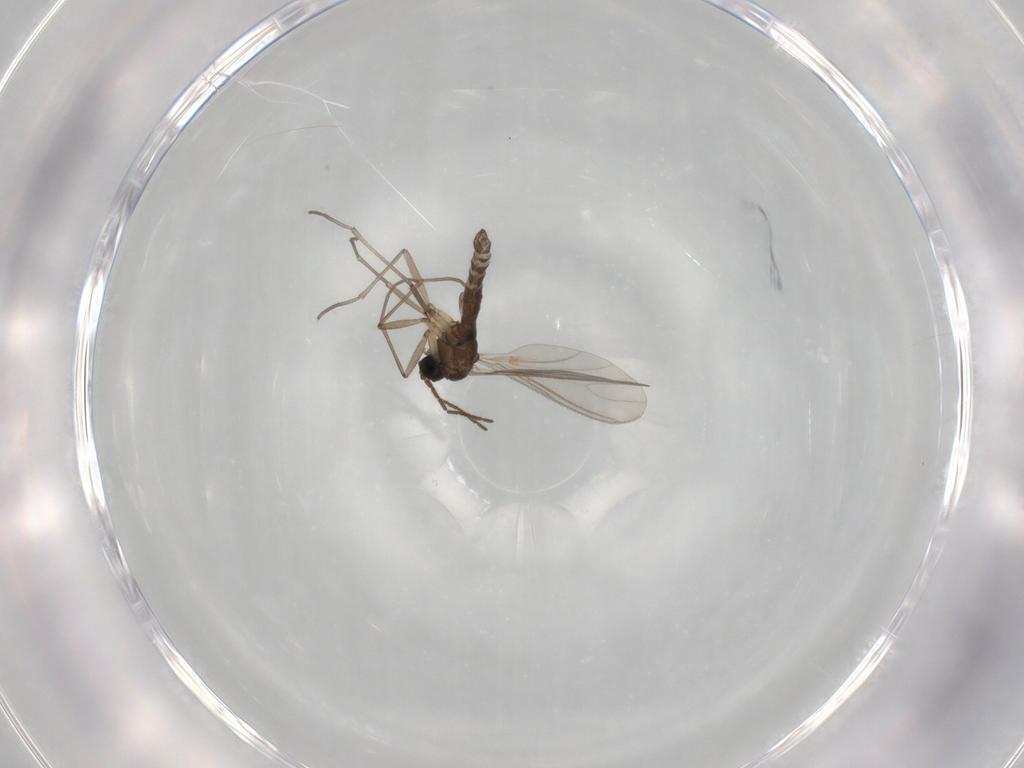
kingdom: Animalia
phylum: Arthropoda
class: Insecta
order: Diptera
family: Sciaridae
